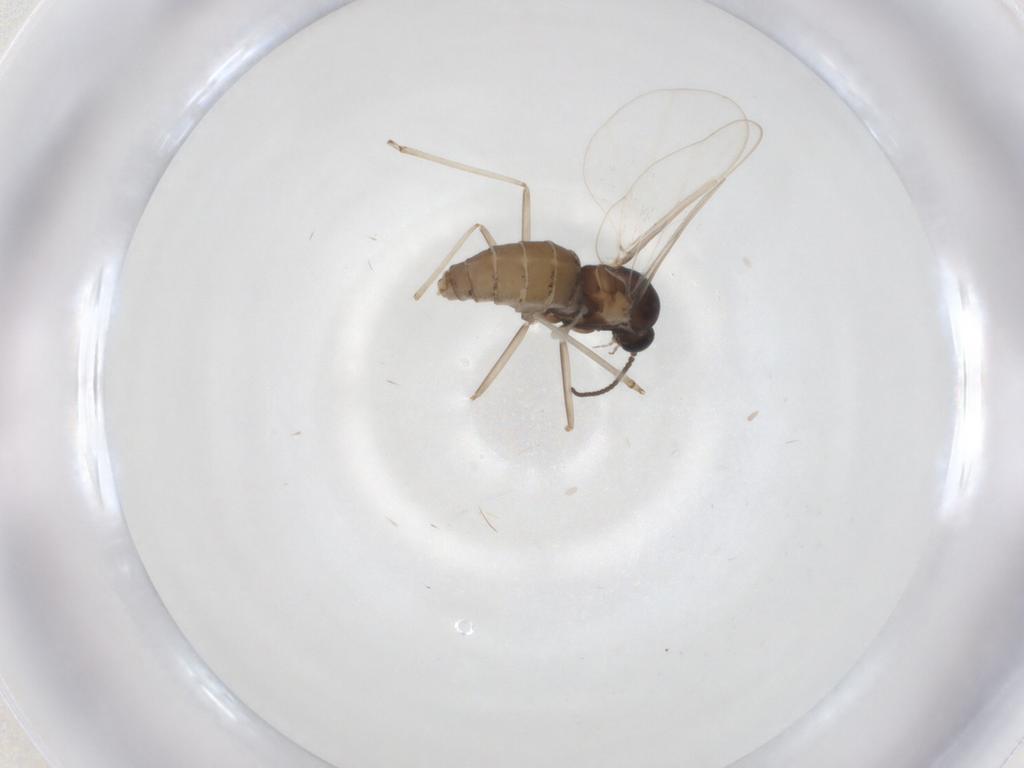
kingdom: Animalia
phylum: Arthropoda
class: Insecta
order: Diptera
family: Cecidomyiidae
